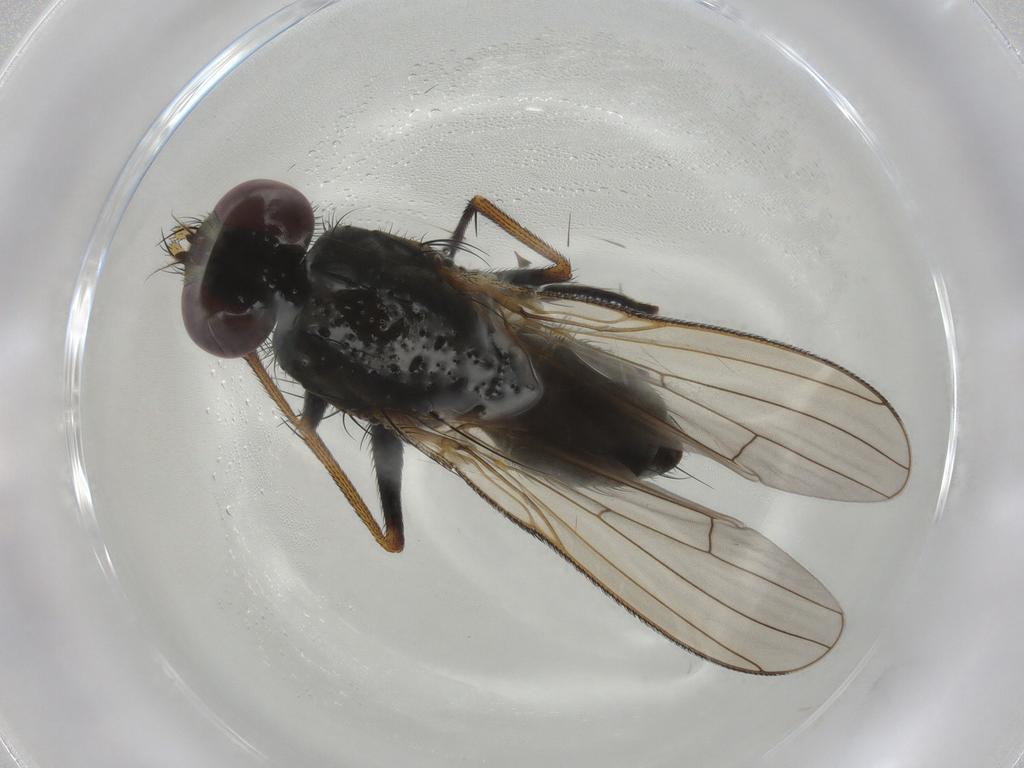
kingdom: Animalia
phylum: Arthropoda
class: Insecta
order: Diptera
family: Muscidae
